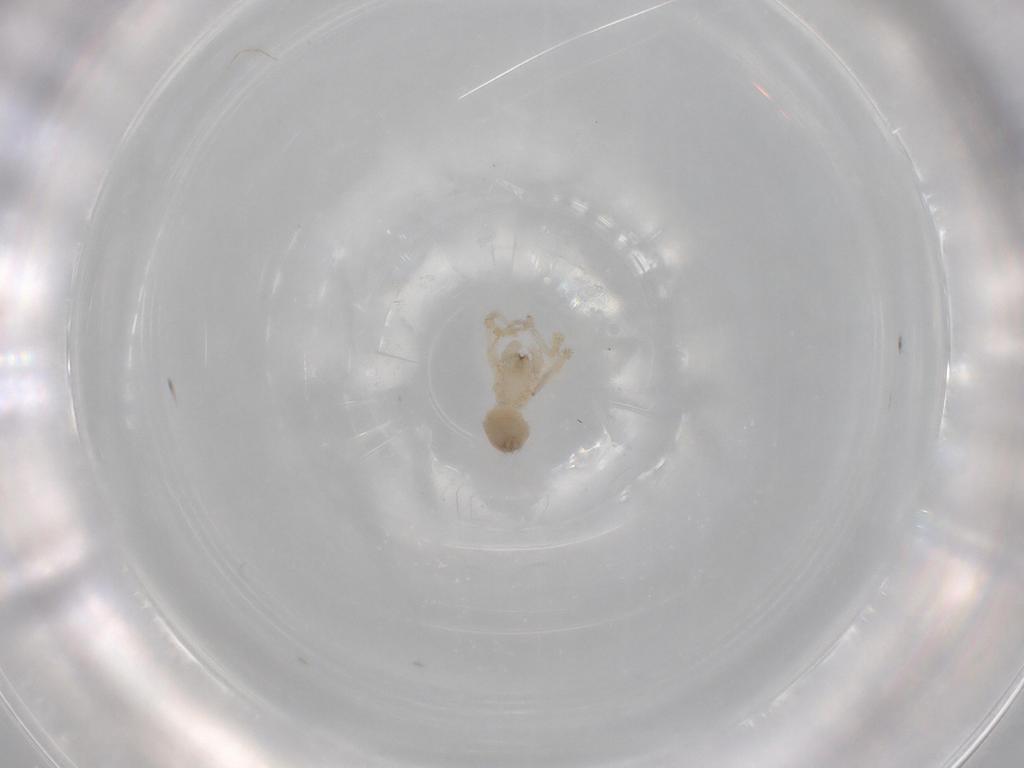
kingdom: Animalia
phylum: Arthropoda
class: Arachnida
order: Araneae
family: Oonopidae
